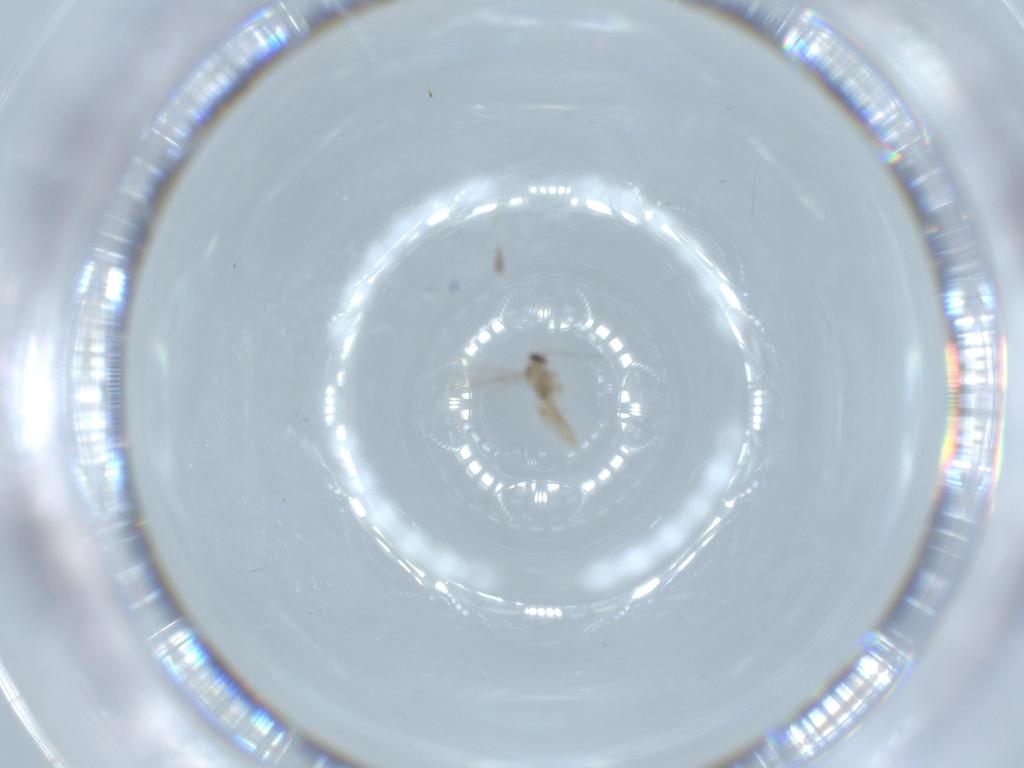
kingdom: Animalia
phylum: Arthropoda
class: Insecta
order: Diptera
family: Cecidomyiidae
